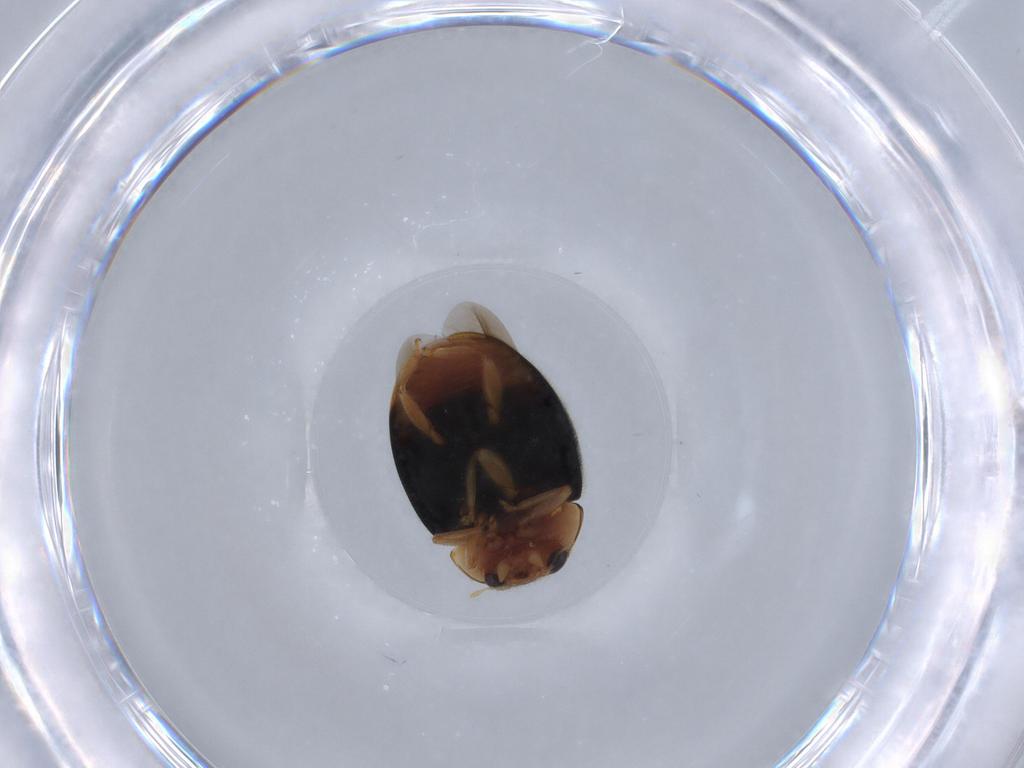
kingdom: Animalia
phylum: Arthropoda
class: Insecta
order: Coleoptera
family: Coccinellidae
